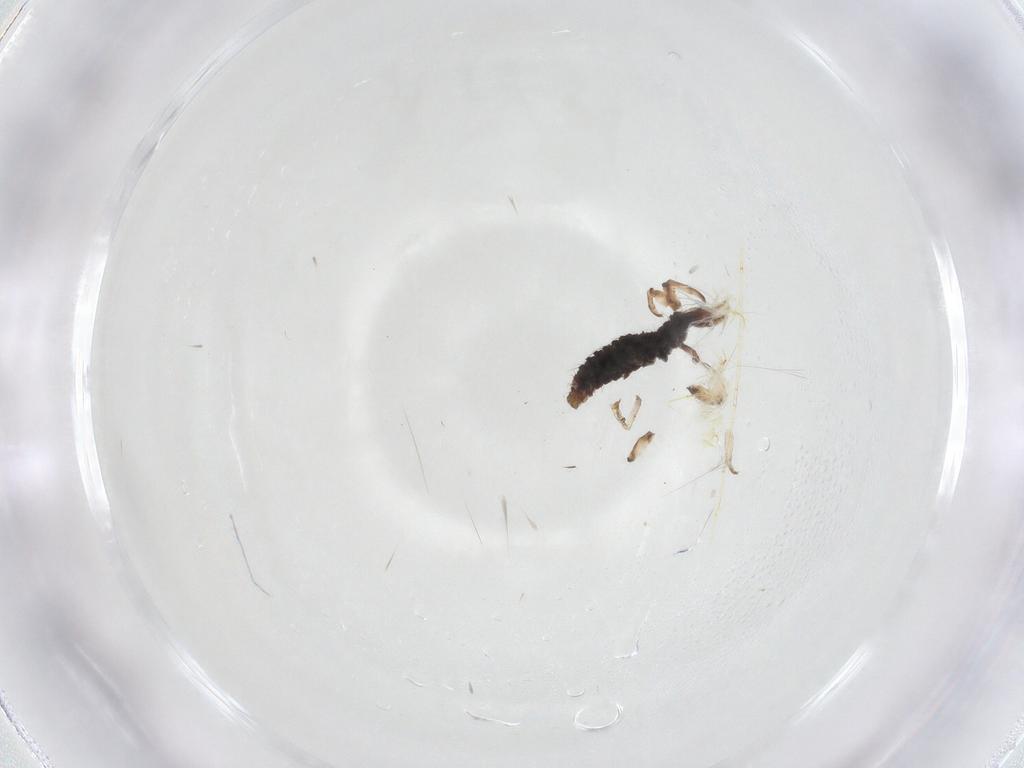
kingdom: Animalia
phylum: Arthropoda
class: Insecta
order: Neuroptera
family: Hemerobiidae
